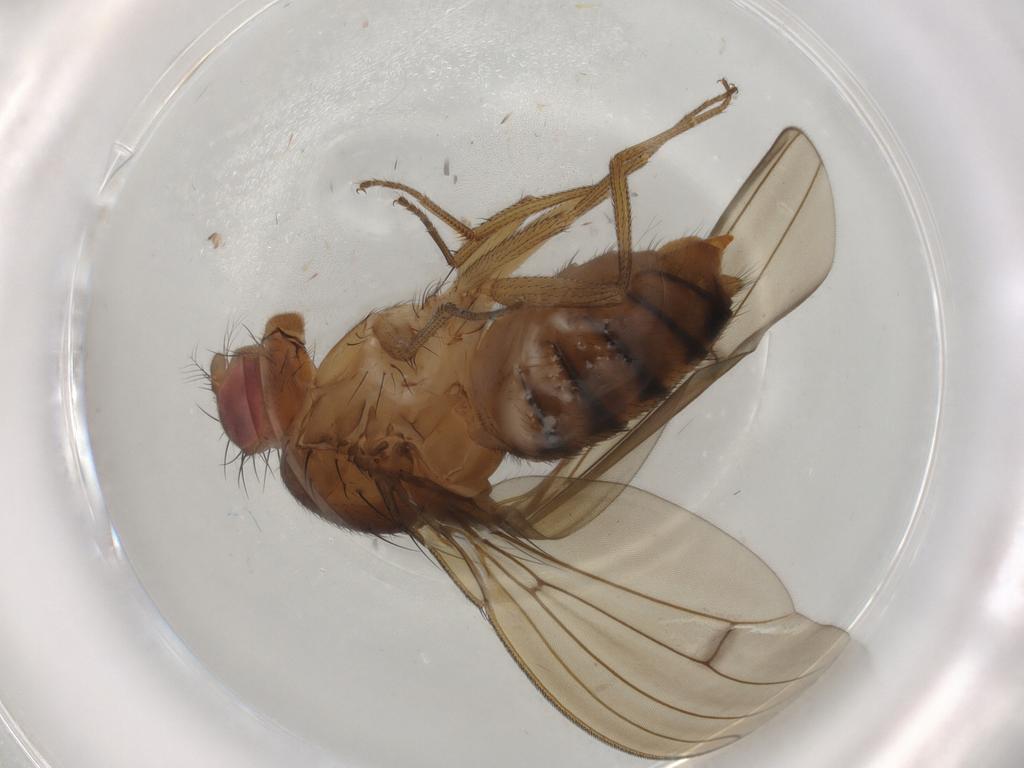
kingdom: Animalia
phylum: Arthropoda
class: Insecta
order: Diptera
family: Drosophilidae
